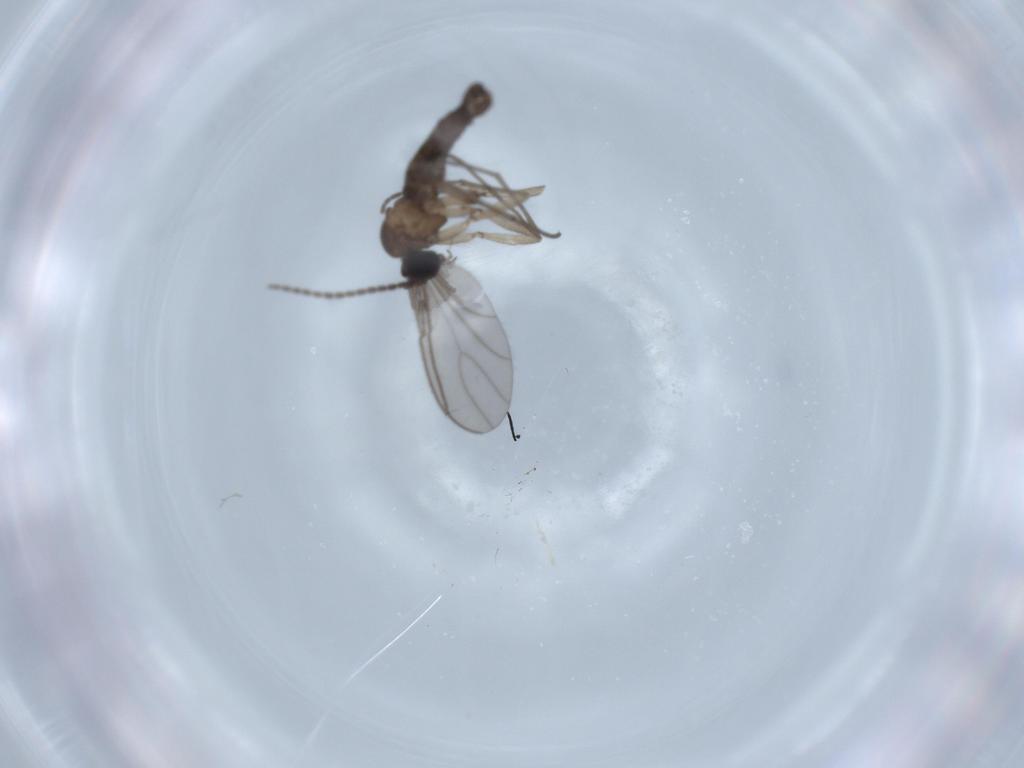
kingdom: Animalia
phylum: Arthropoda
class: Insecta
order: Diptera
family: Sciaridae
